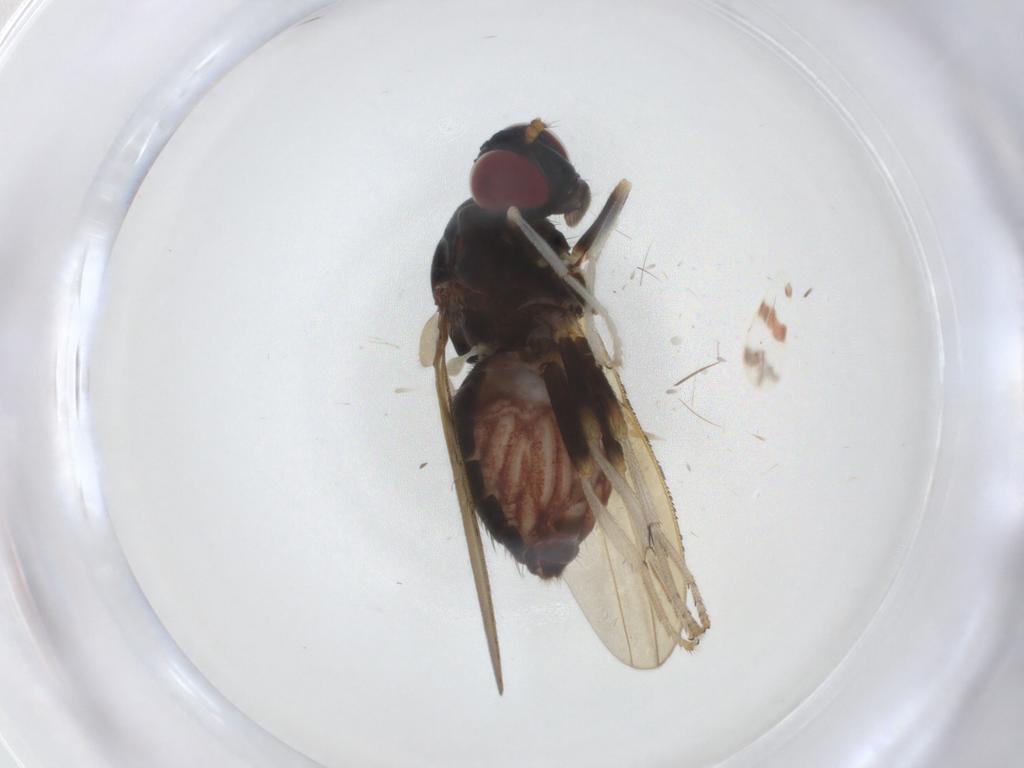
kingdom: Animalia
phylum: Arthropoda
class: Insecta
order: Diptera
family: Lauxaniidae
